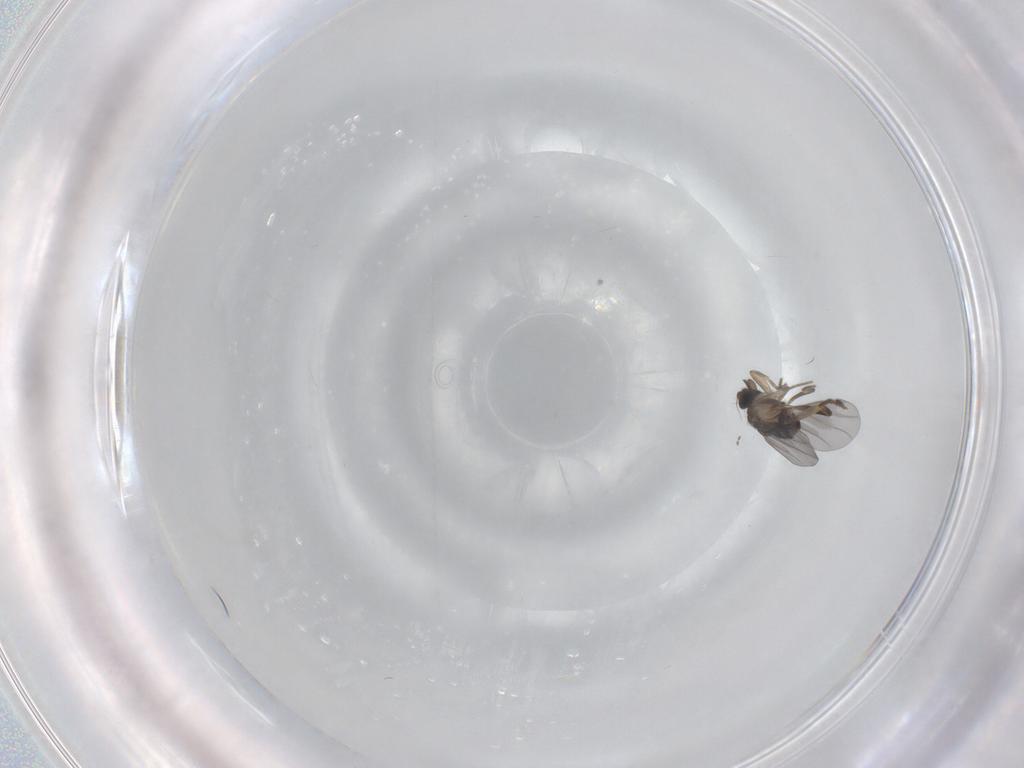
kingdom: Animalia
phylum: Arthropoda
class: Insecta
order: Diptera
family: Cecidomyiidae
